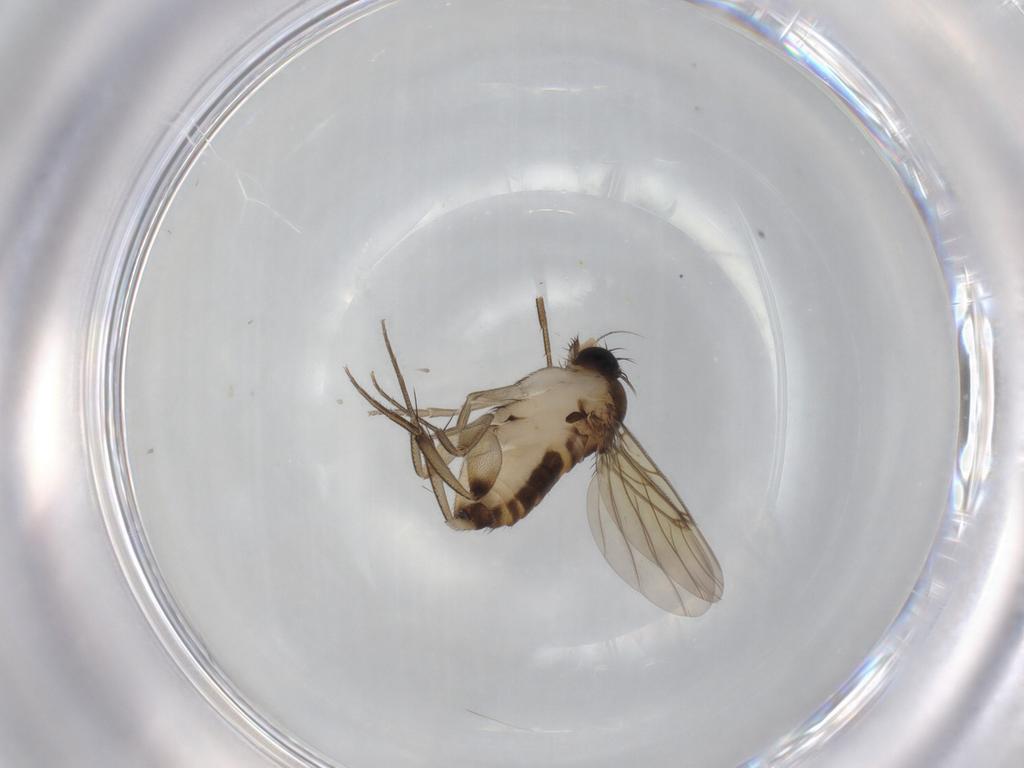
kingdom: Animalia
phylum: Arthropoda
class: Insecta
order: Diptera
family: Phoridae
